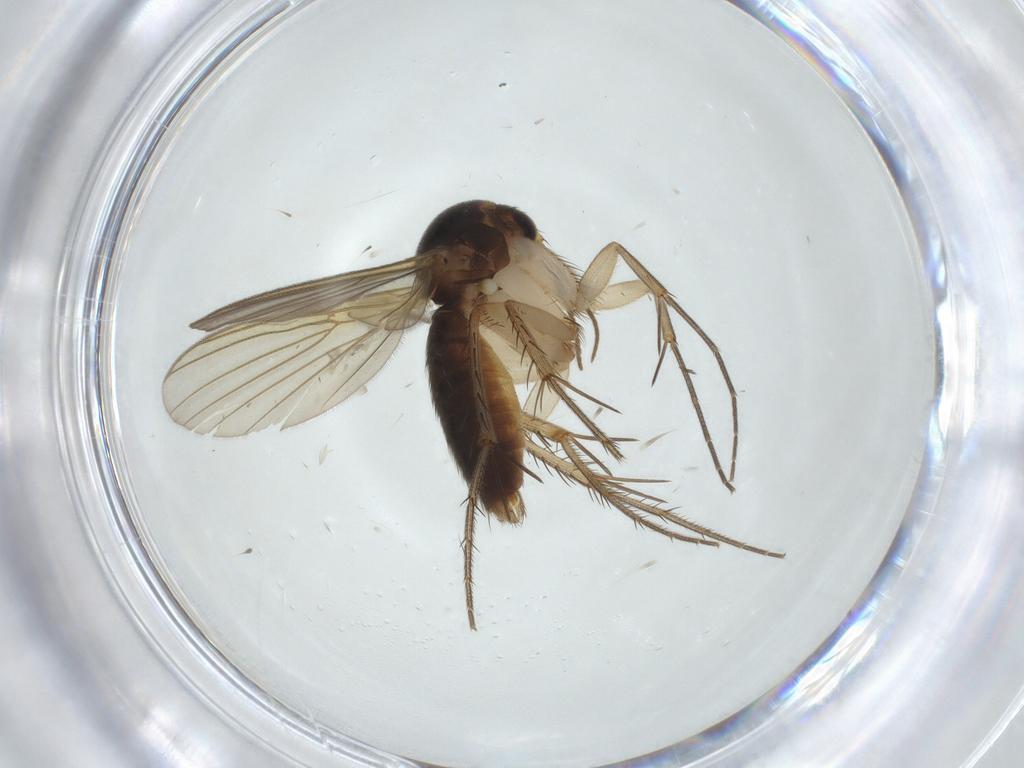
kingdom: Animalia
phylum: Arthropoda
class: Insecta
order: Diptera
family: Mycetophilidae
